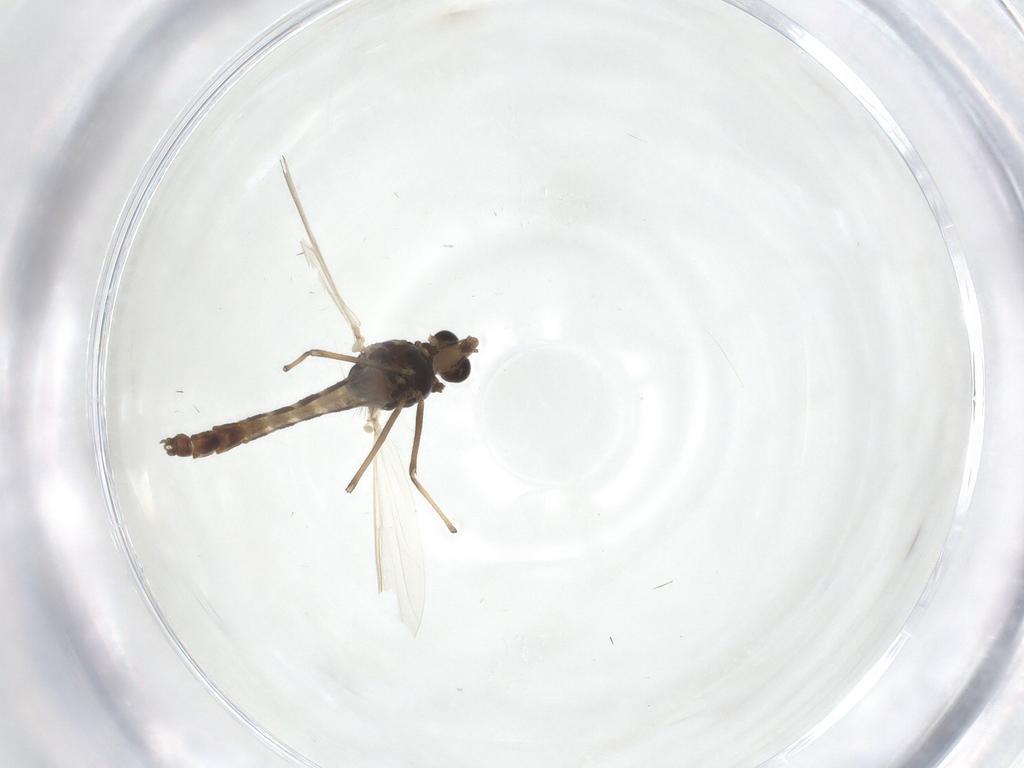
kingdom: Animalia
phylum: Arthropoda
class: Insecta
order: Diptera
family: Chironomidae
